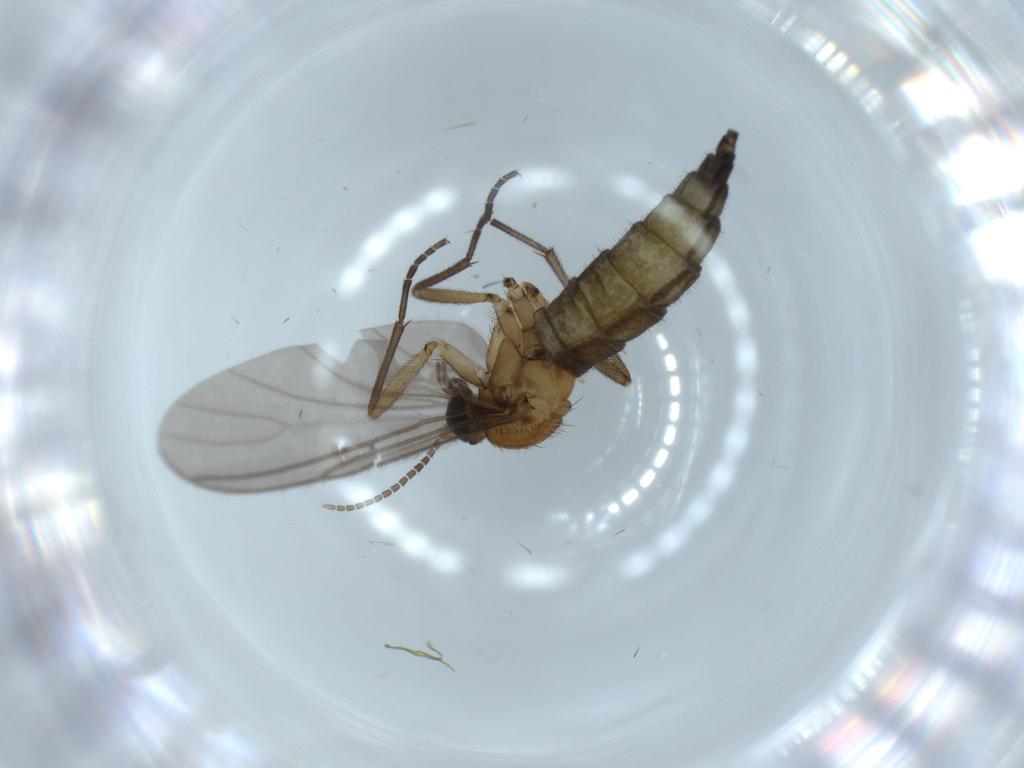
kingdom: Animalia
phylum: Arthropoda
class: Insecta
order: Diptera
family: Sciaridae
